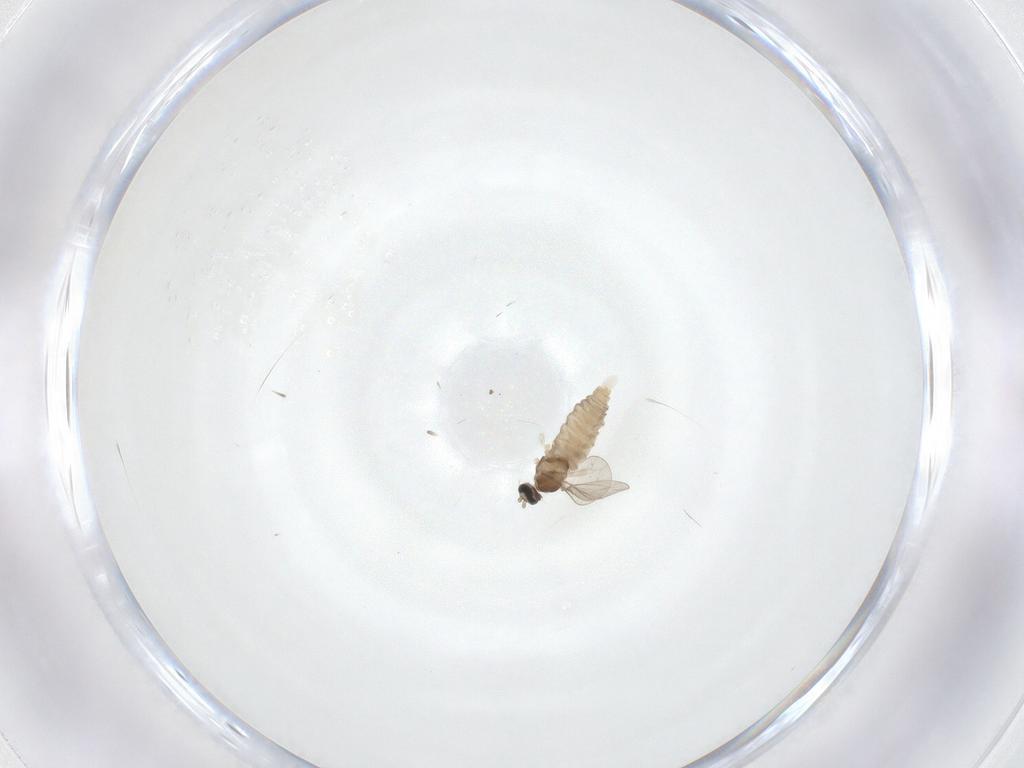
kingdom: Animalia
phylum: Arthropoda
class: Insecta
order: Diptera
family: Cecidomyiidae
